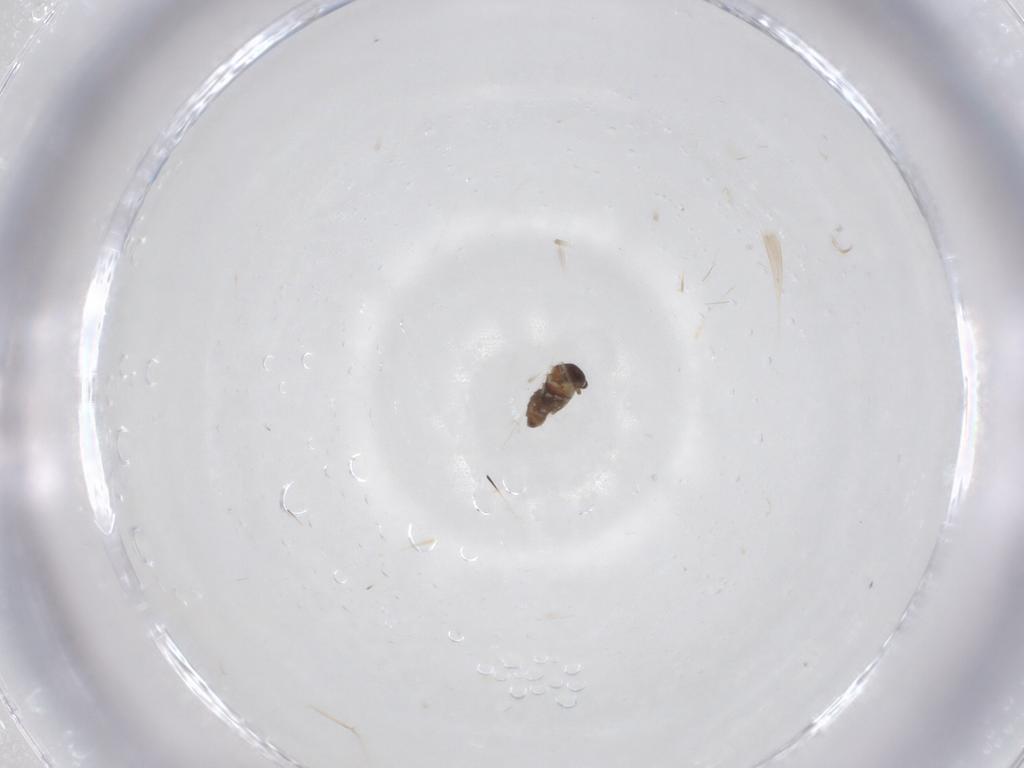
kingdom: Animalia
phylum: Arthropoda
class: Insecta
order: Diptera
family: Cecidomyiidae
